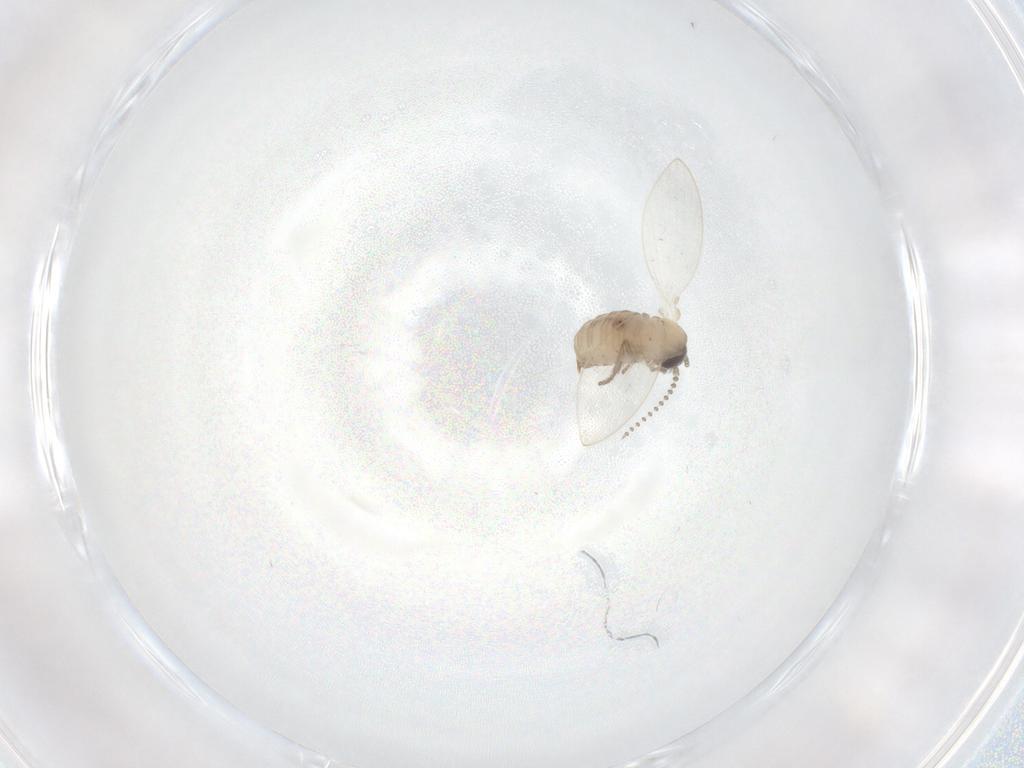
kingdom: Animalia
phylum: Arthropoda
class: Insecta
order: Diptera
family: Psychodidae
